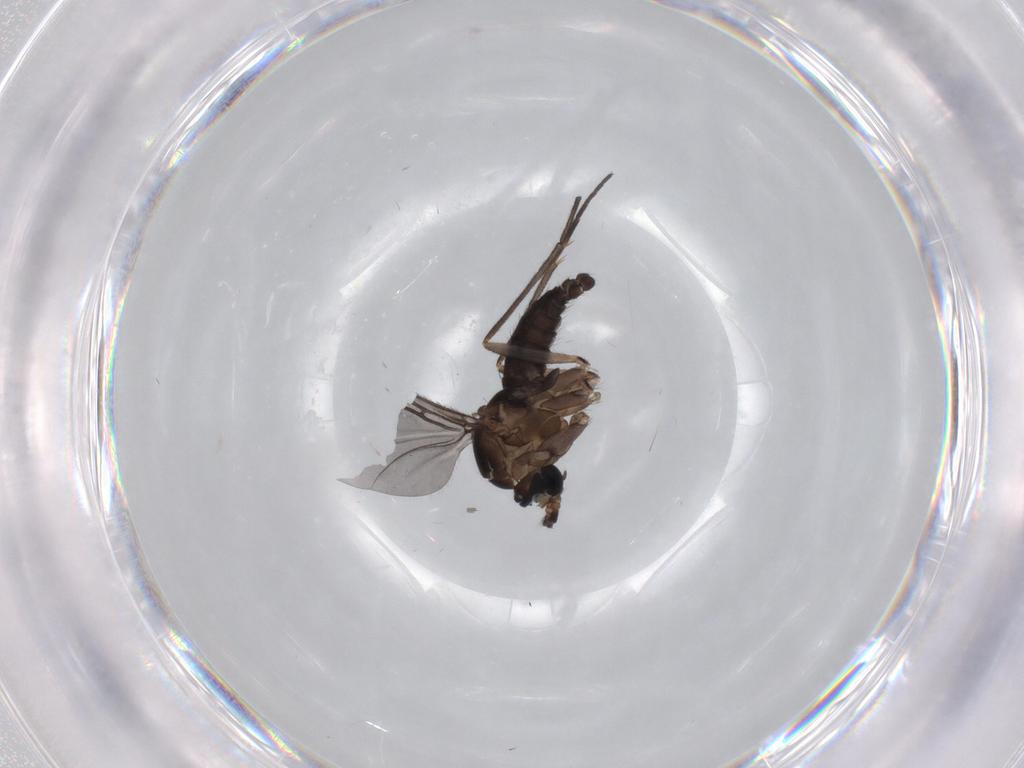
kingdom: Animalia
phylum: Arthropoda
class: Insecta
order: Diptera
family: Sciaridae
